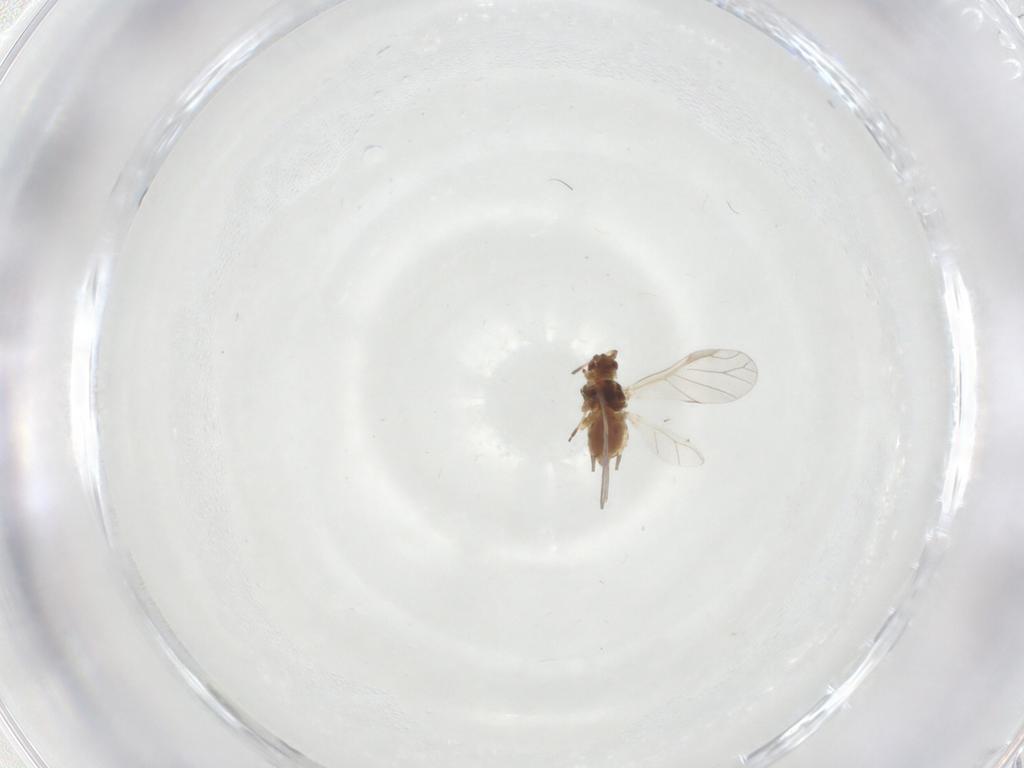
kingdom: Animalia
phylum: Arthropoda
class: Insecta
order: Hemiptera
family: Aphididae
